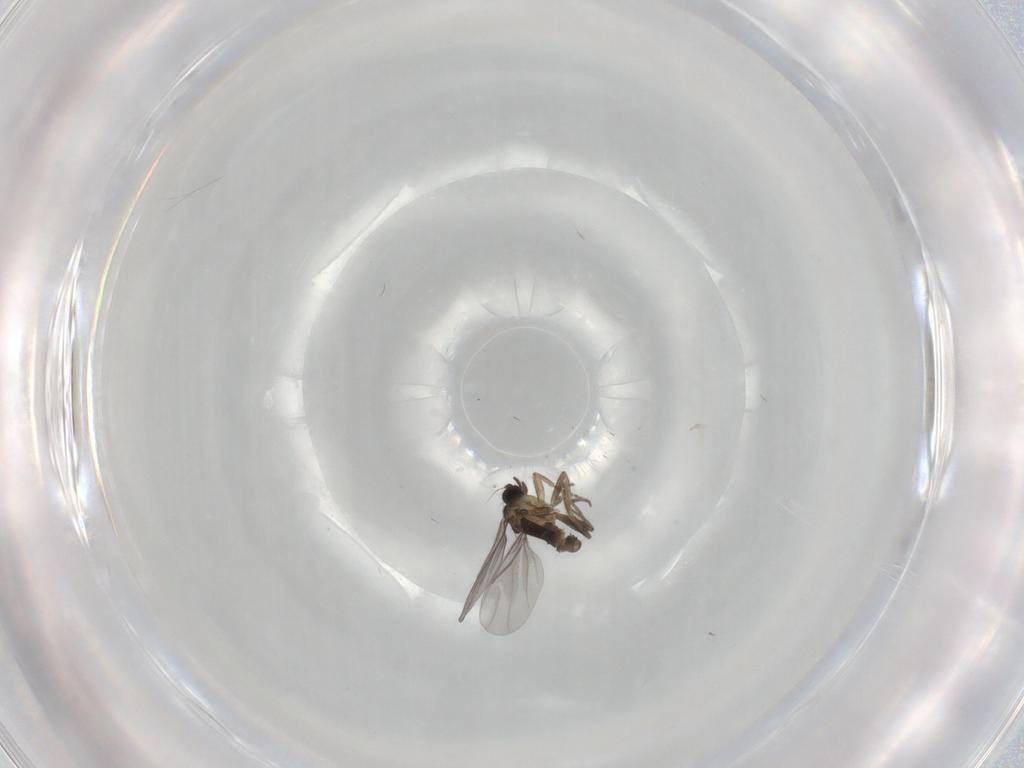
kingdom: Animalia
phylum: Arthropoda
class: Insecta
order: Diptera
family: Phoridae
